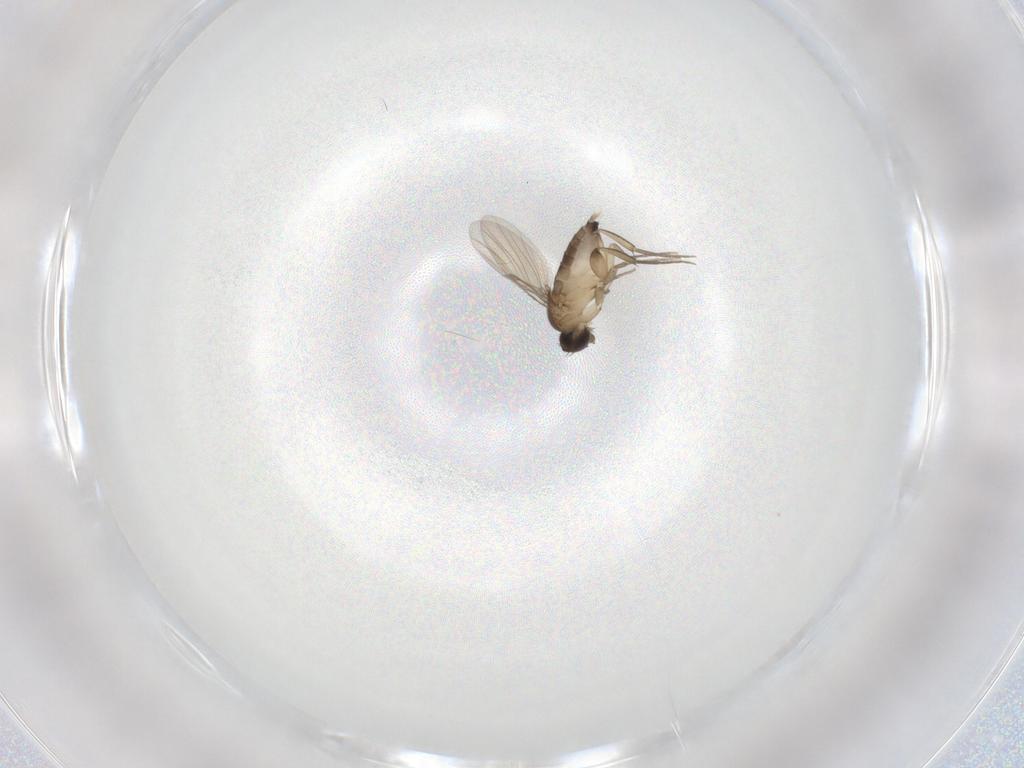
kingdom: Animalia
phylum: Arthropoda
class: Insecta
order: Diptera
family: Phoridae
